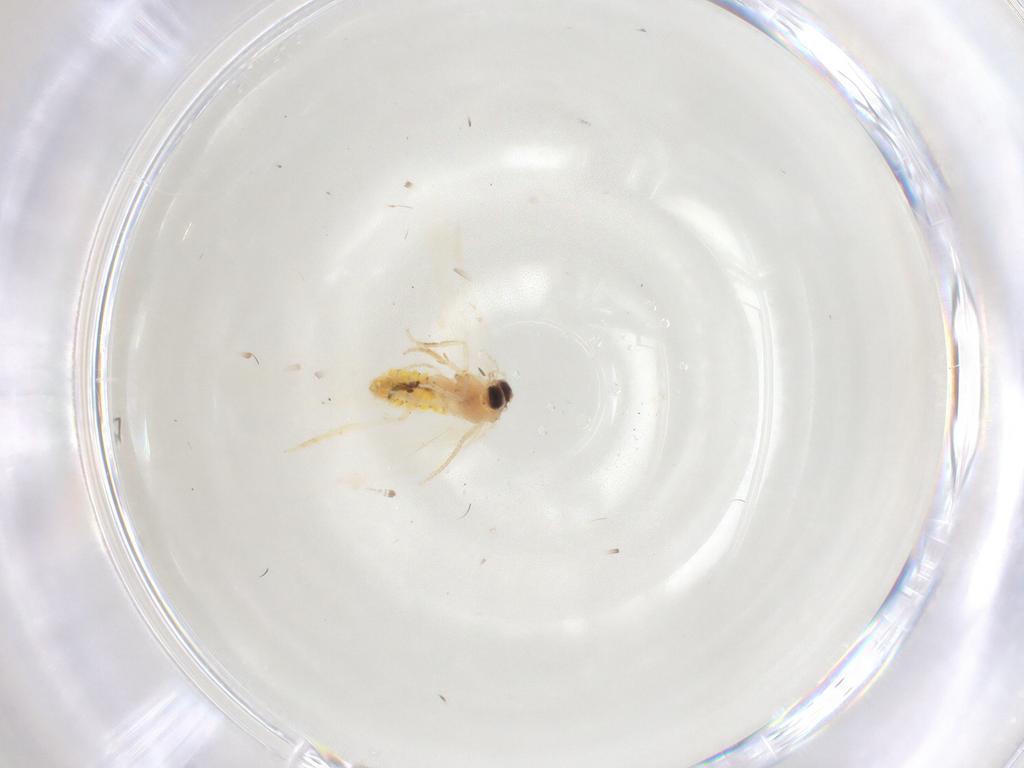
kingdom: Animalia
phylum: Arthropoda
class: Insecta
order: Lepidoptera
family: Nepticulidae
